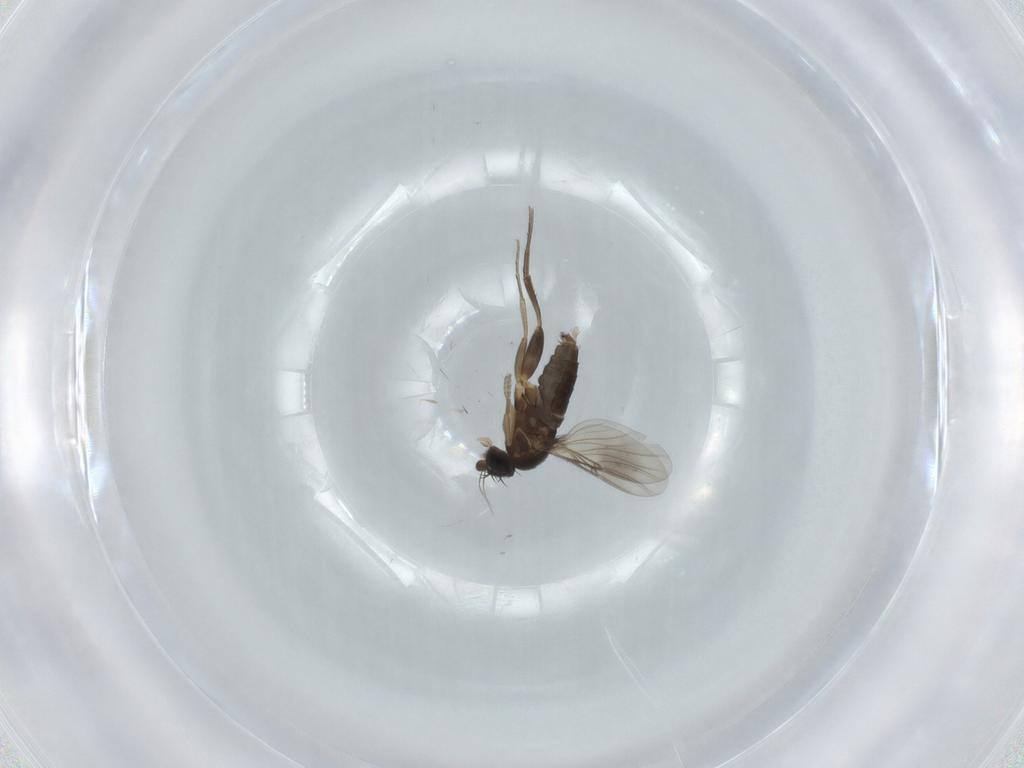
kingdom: Animalia
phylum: Arthropoda
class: Insecta
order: Diptera
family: Phoridae
